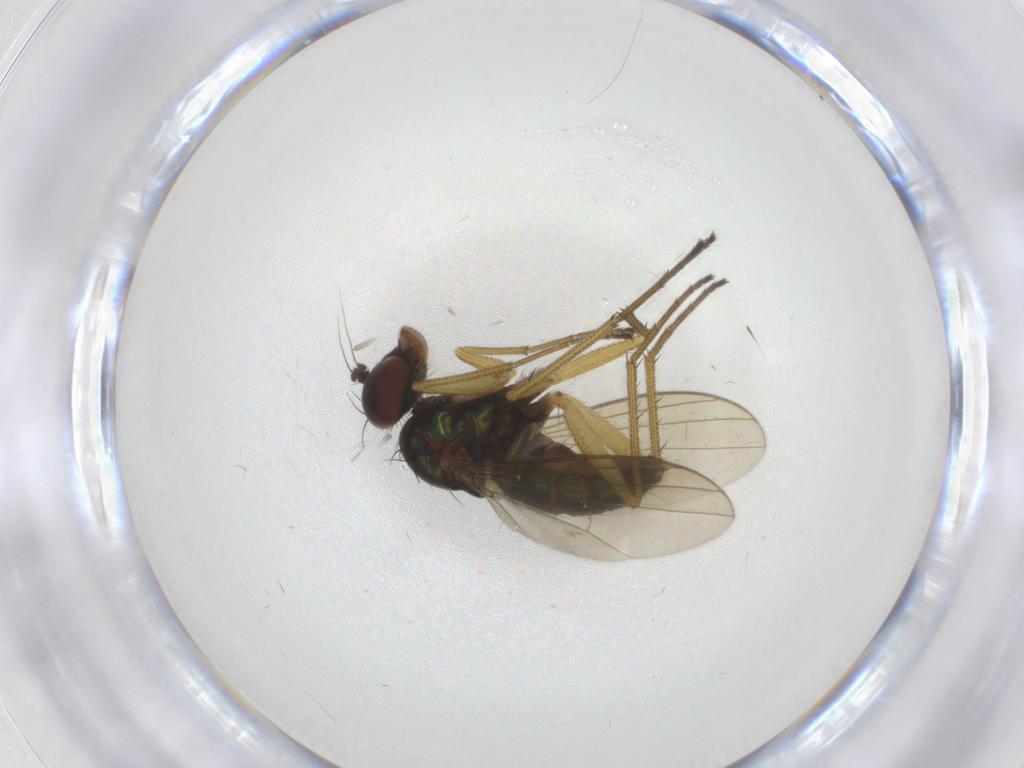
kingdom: Animalia
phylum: Arthropoda
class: Insecta
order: Diptera
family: Dolichopodidae
